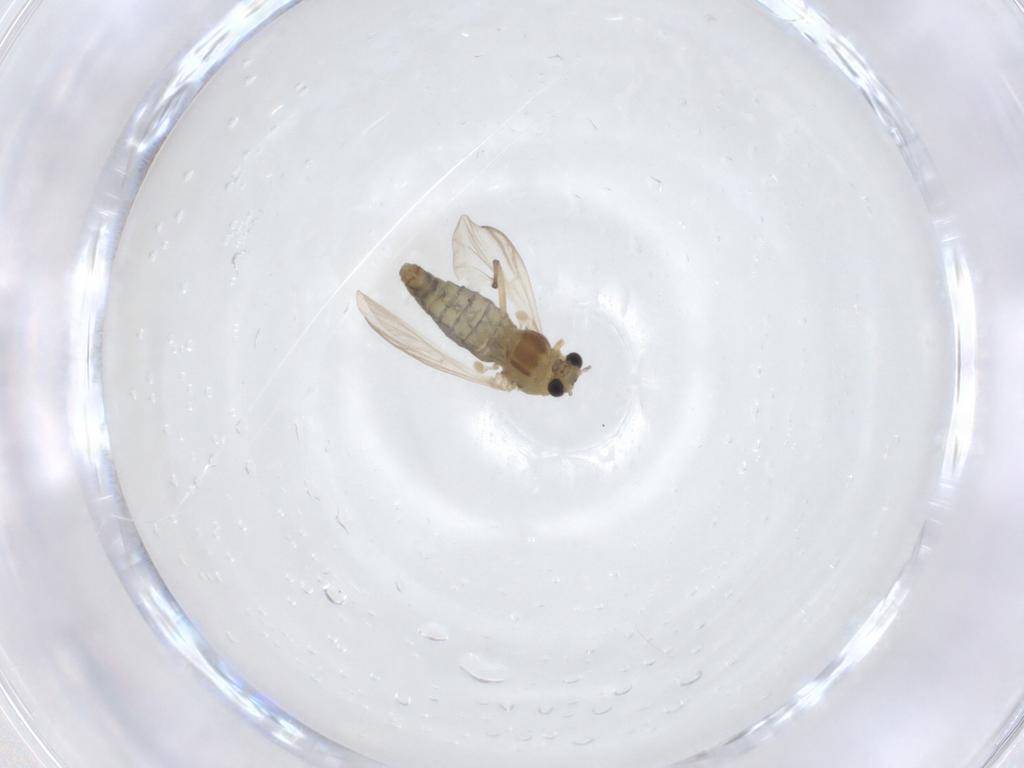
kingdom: Animalia
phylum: Arthropoda
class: Insecta
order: Diptera
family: Chironomidae
